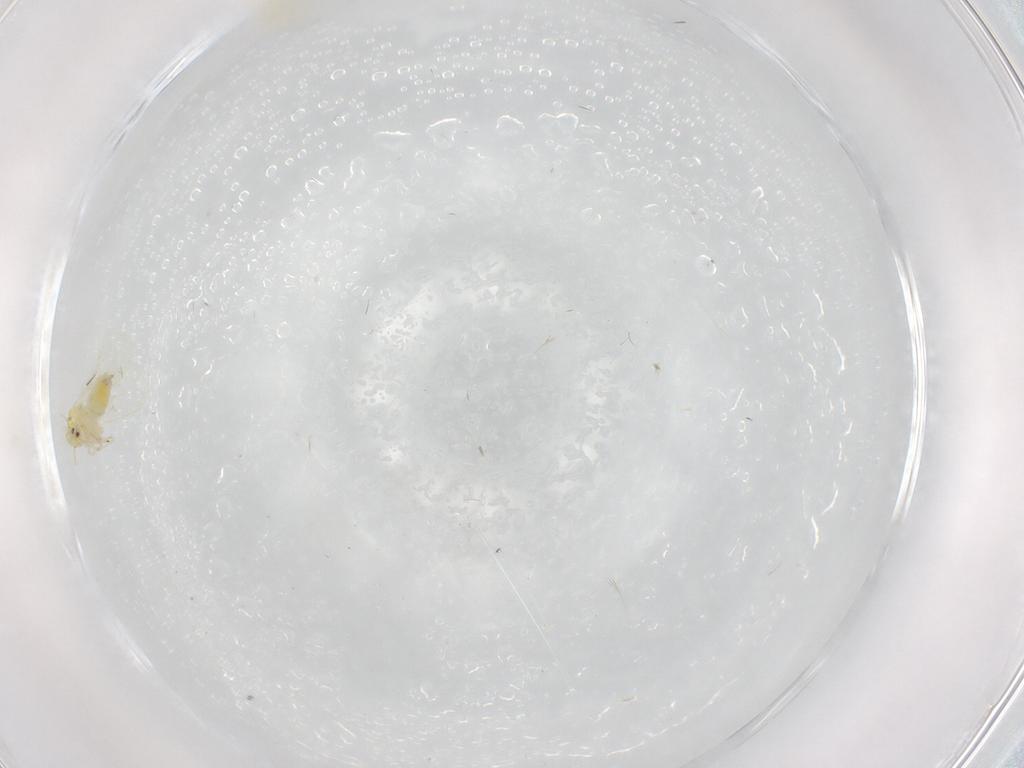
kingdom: Animalia
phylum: Arthropoda
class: Insecta
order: Hemiptera
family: Aleyrodidae
